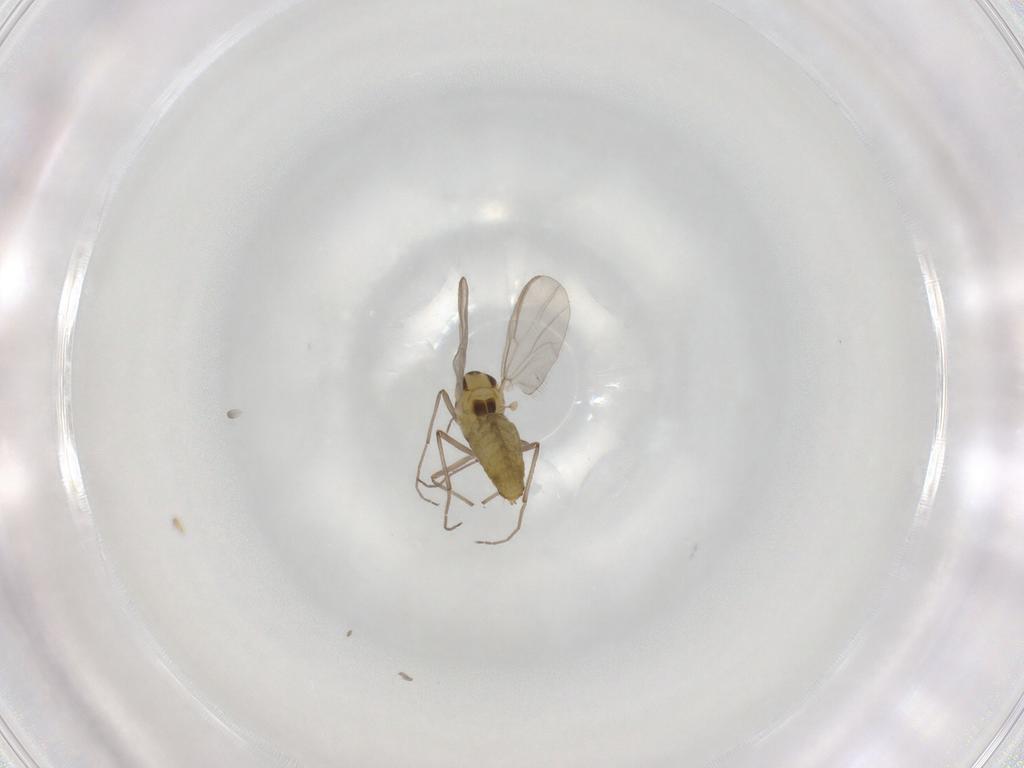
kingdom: Animalia
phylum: Arthropoda
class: Insecta
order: Diptera
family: Chironomidae
